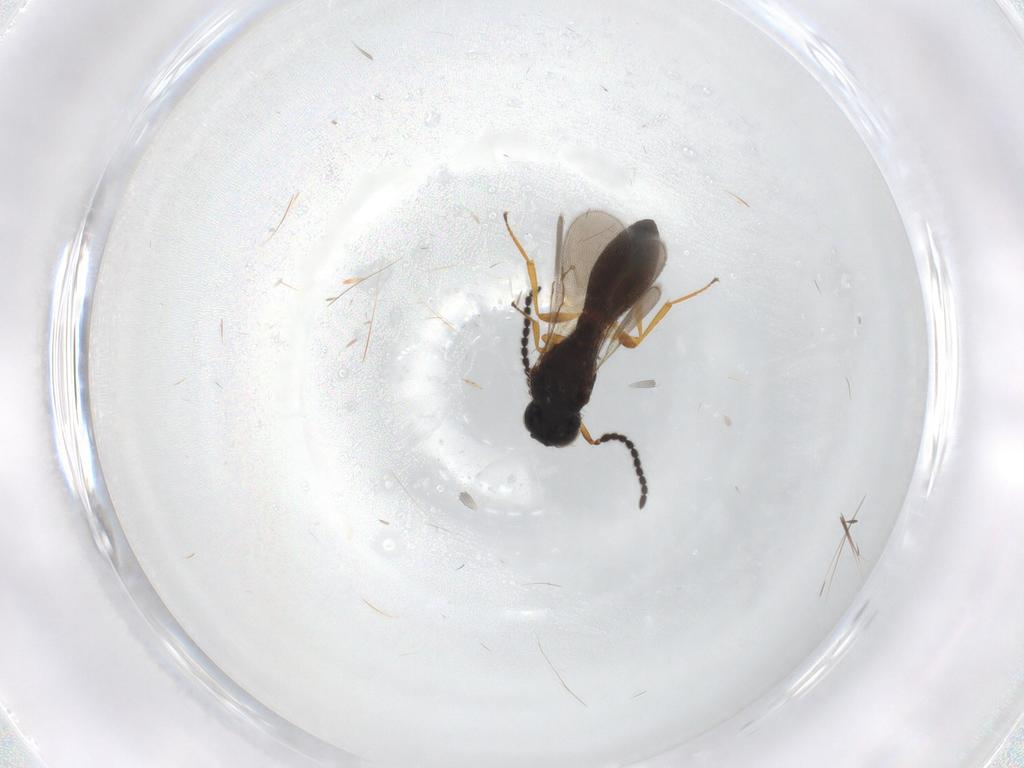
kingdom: Animalia
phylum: Arthropoda
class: Insecta
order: Hymenoptera
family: Scelionidae
